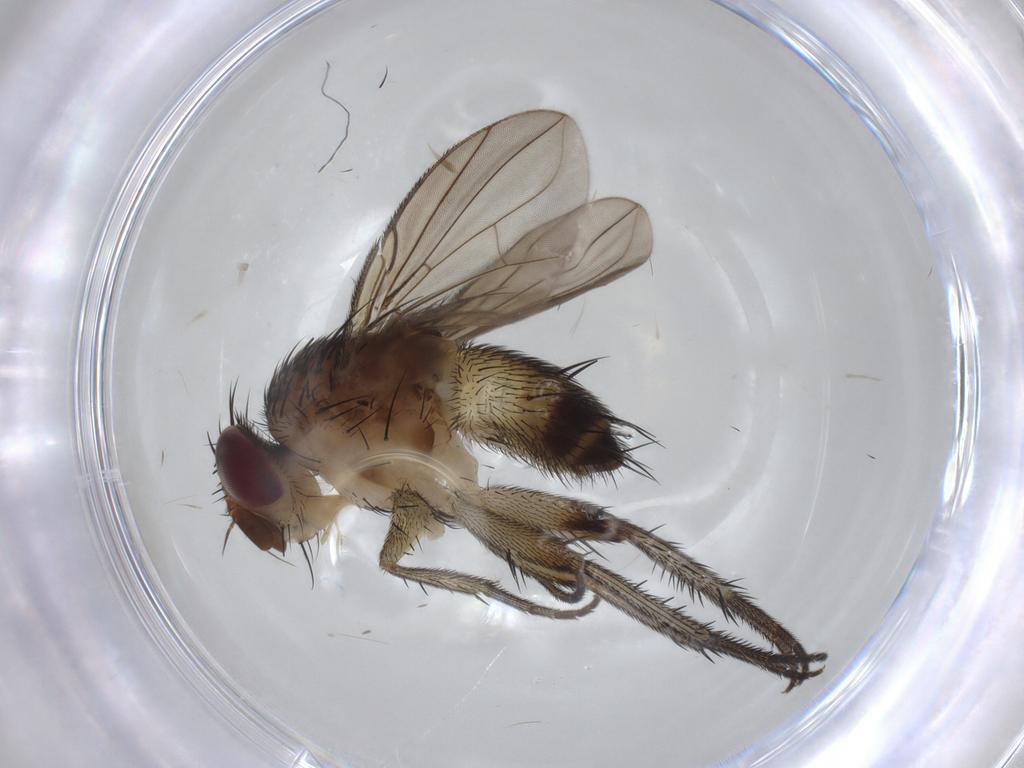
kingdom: Animalia
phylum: Arthropoda
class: Insecta
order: Diptera
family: Tachinidae
